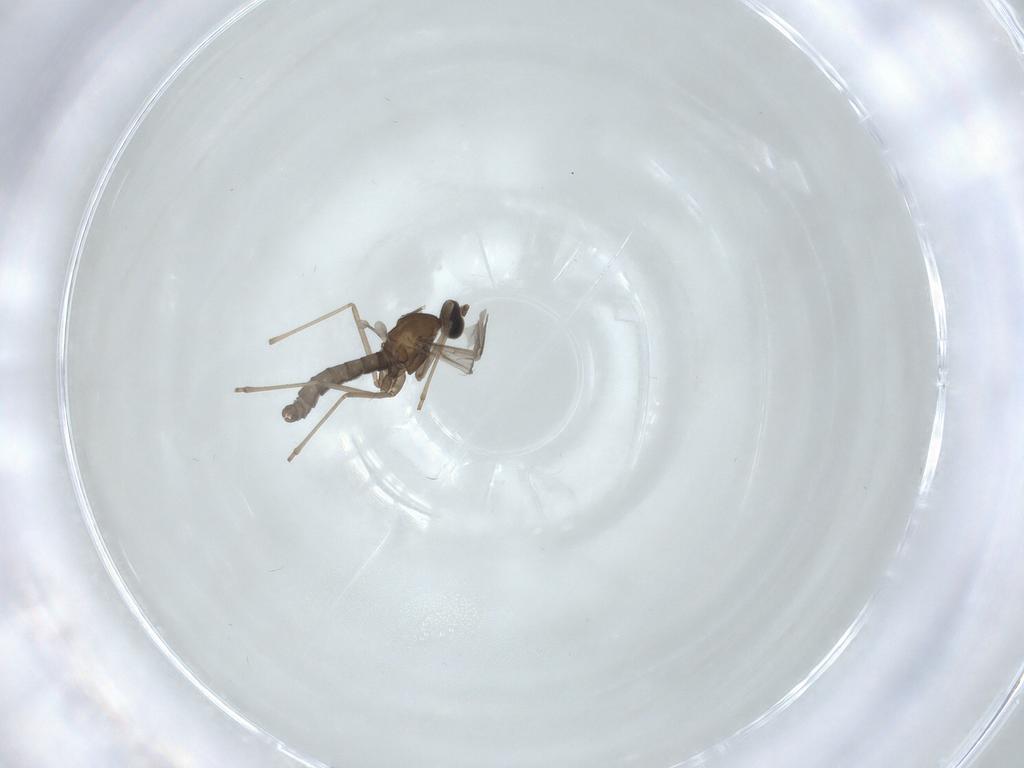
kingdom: Animalia
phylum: Arthropoda
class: Insecta
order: Diptera
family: Cecidomyiidae
